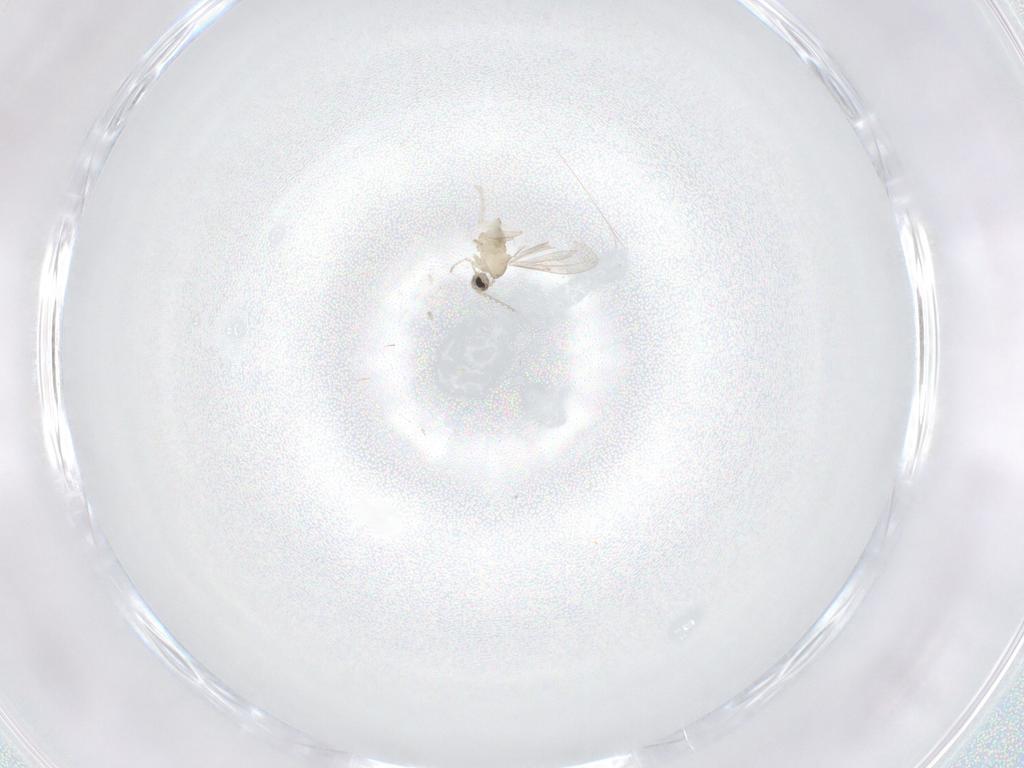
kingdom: Animalia
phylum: Arthropoda
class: Insecta
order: Diptera
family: Cecidomyiidae
